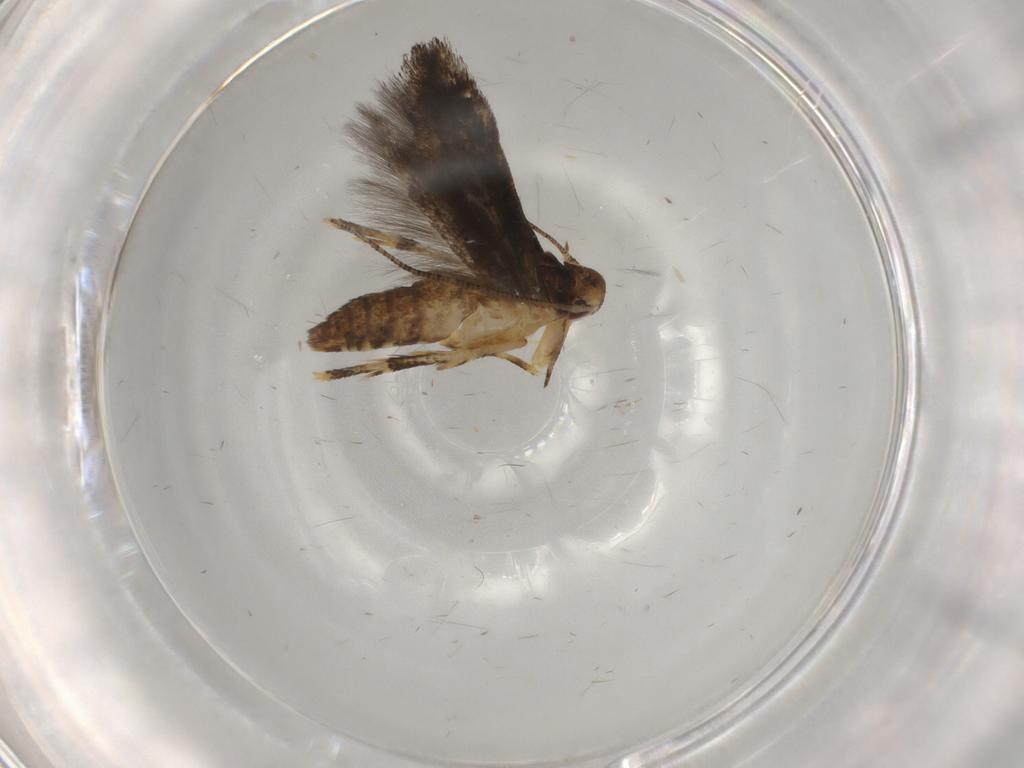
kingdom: Animalia
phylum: Arthropoda
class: Insecta
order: Lepidoptera
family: Momphidae
